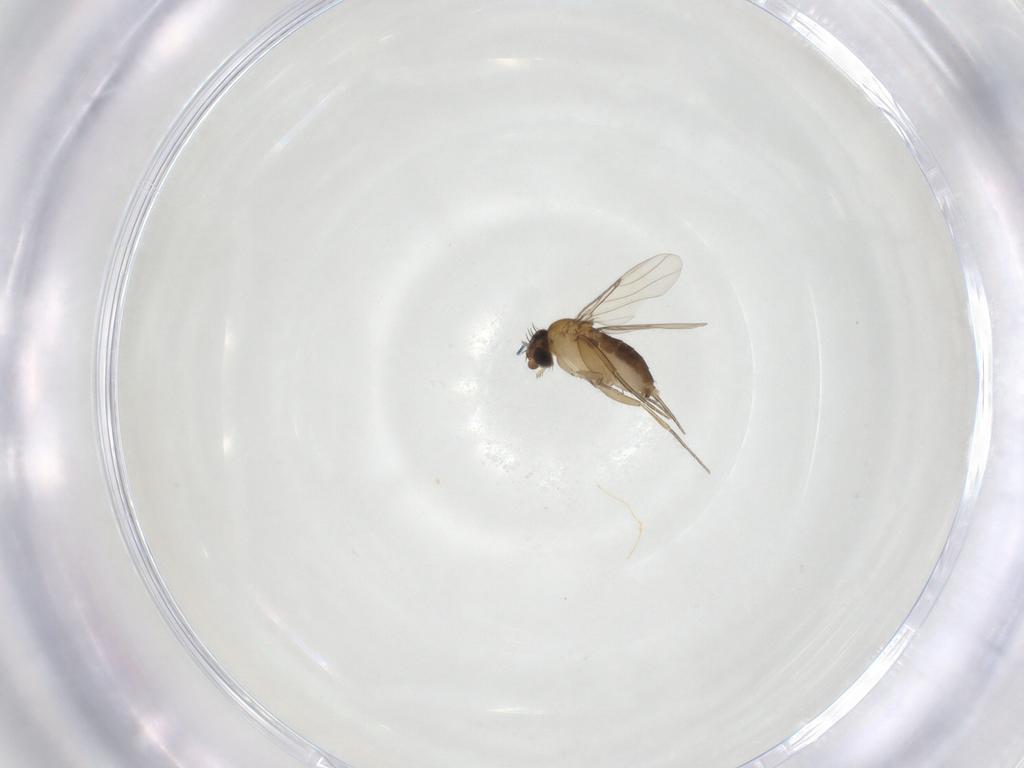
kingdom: Animalia
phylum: Arthropoda
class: Insecta
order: Diptera
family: Phoridae
